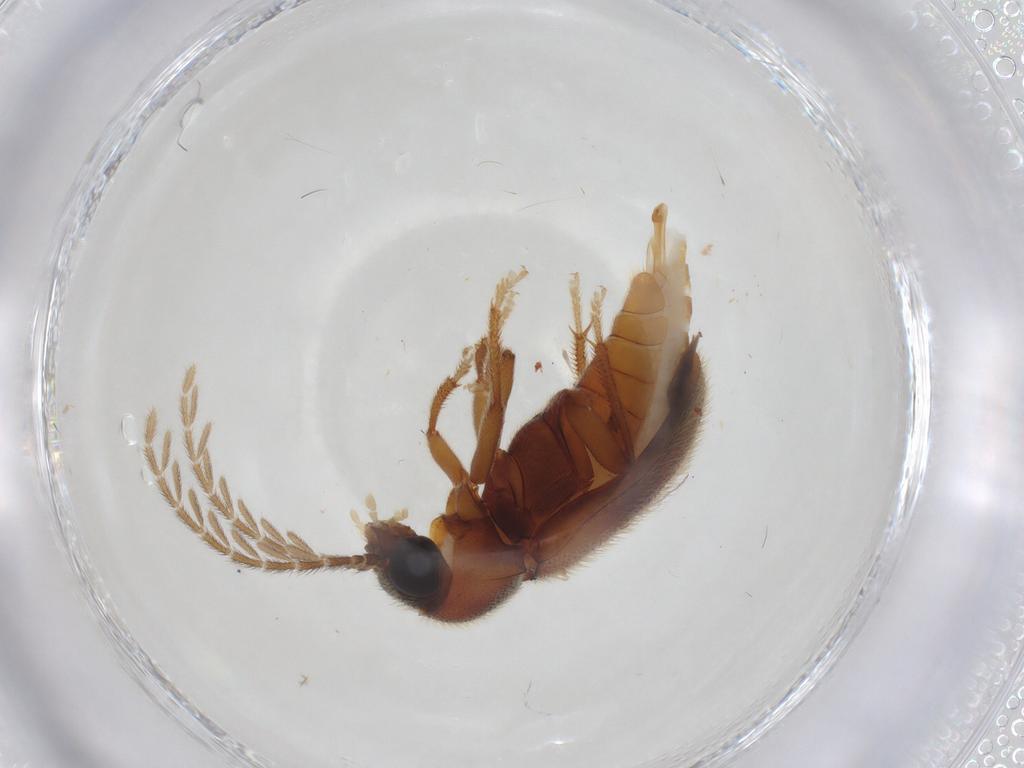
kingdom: Animalia
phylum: Arthropoda
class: Insecta
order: Coleoptera
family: Ptilodactylidae
